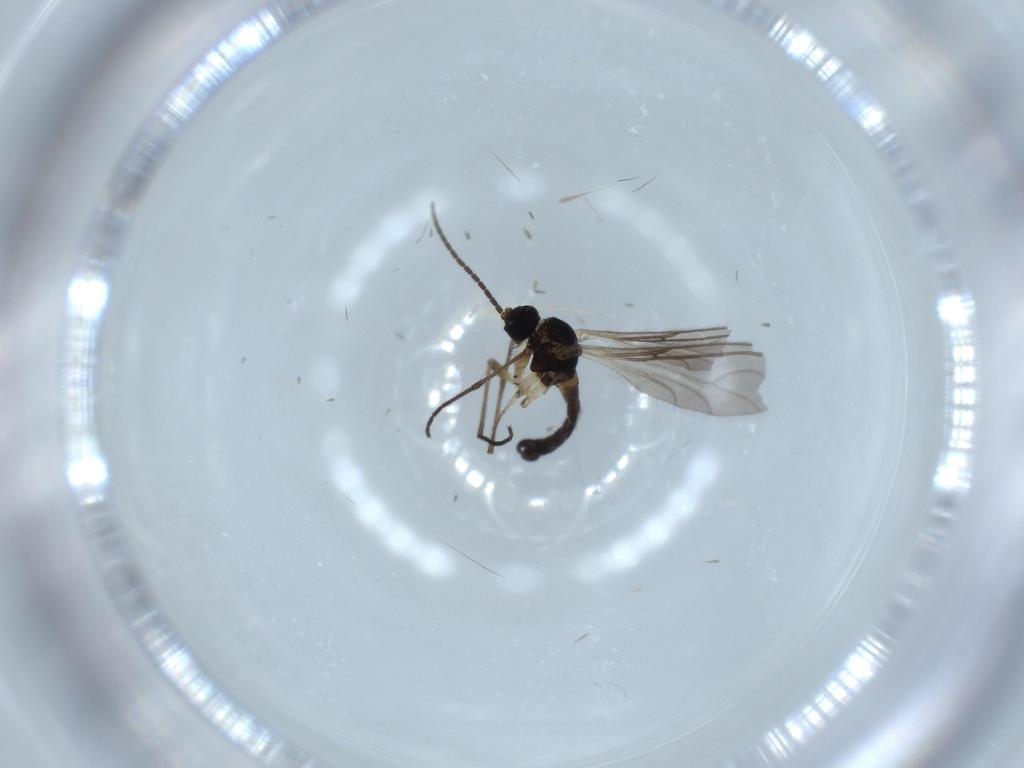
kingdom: Animalia
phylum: Arthropoda
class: Insecta
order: Diptera
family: Sciaridae
